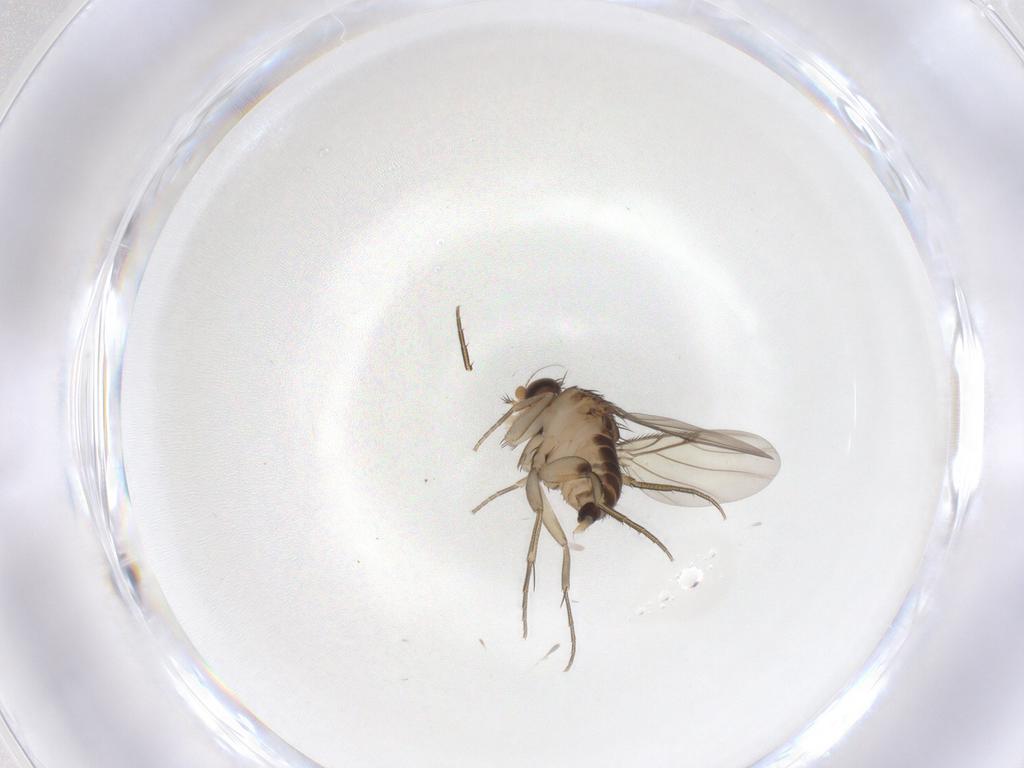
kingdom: Animalia
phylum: Arthropoda
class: Insecta
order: Diptera
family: Phoridae
